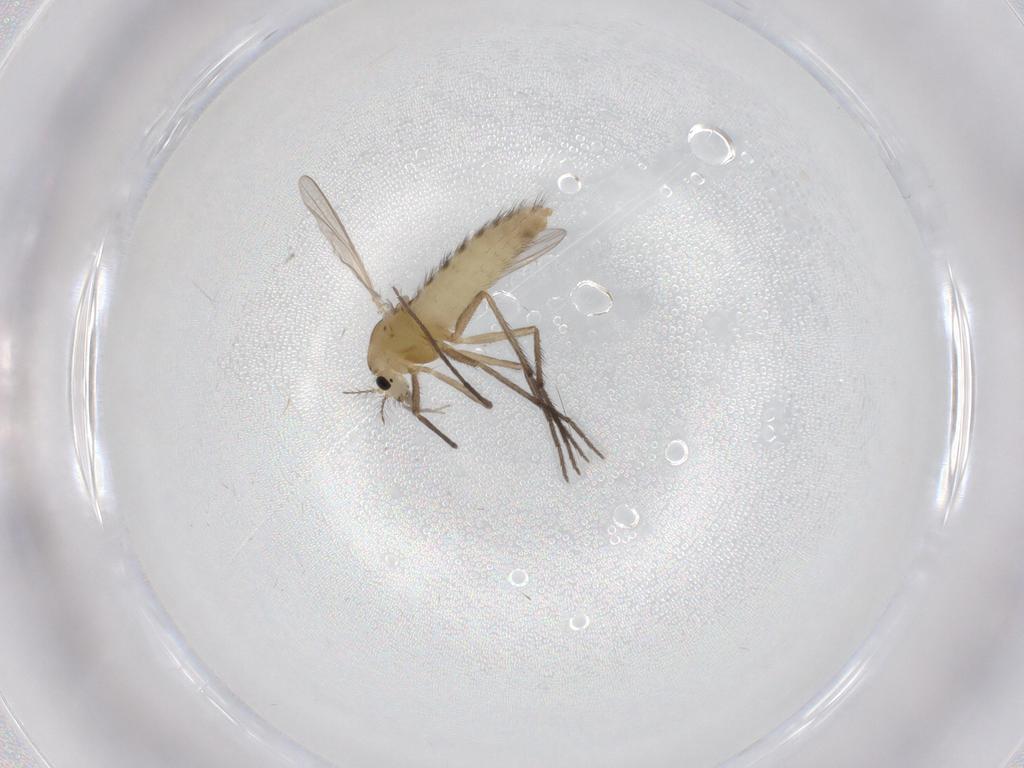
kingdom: Animalia
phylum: Arthropoda
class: Insecta
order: Diptera
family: Chironomidae
